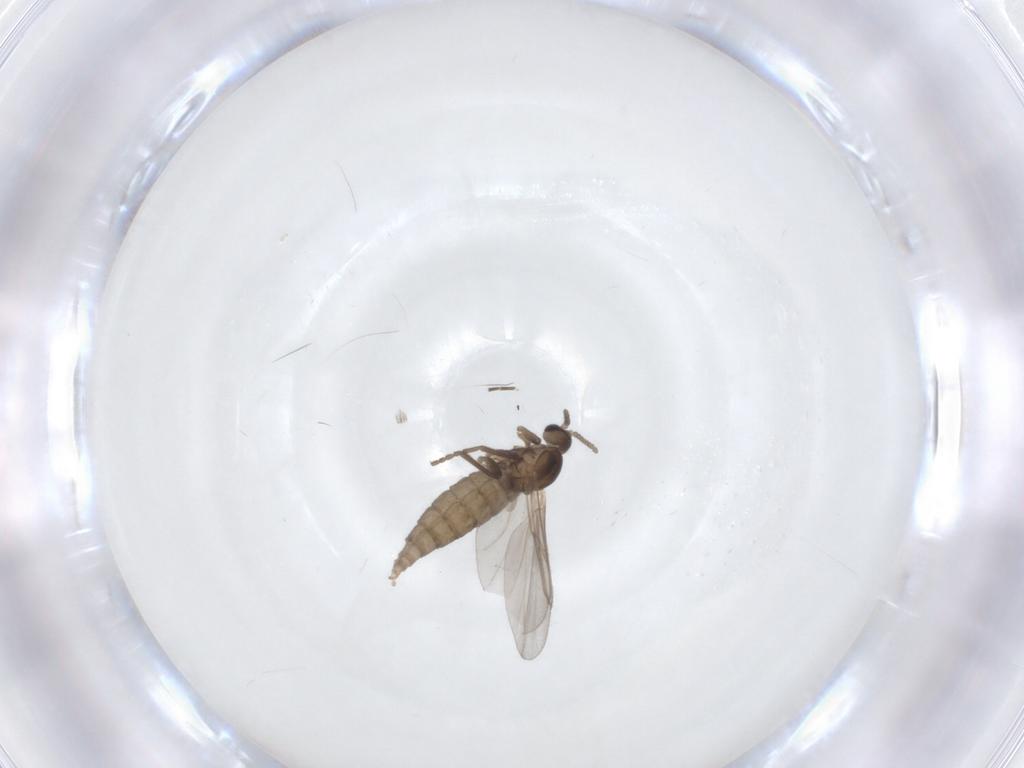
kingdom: Animalia
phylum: Arthropoda
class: Insecta
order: Diptera
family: Cecidomyiidae
